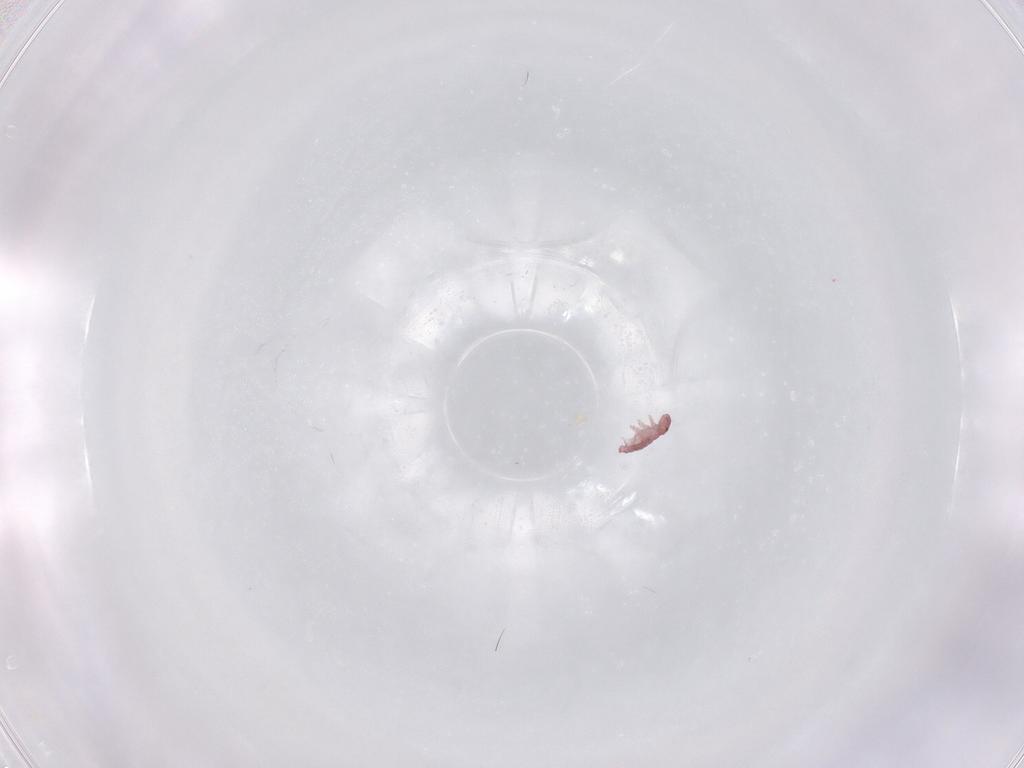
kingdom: Animalia
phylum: Arthropoda
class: Collembola
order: Poduromorpha
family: Hypogastruridae
